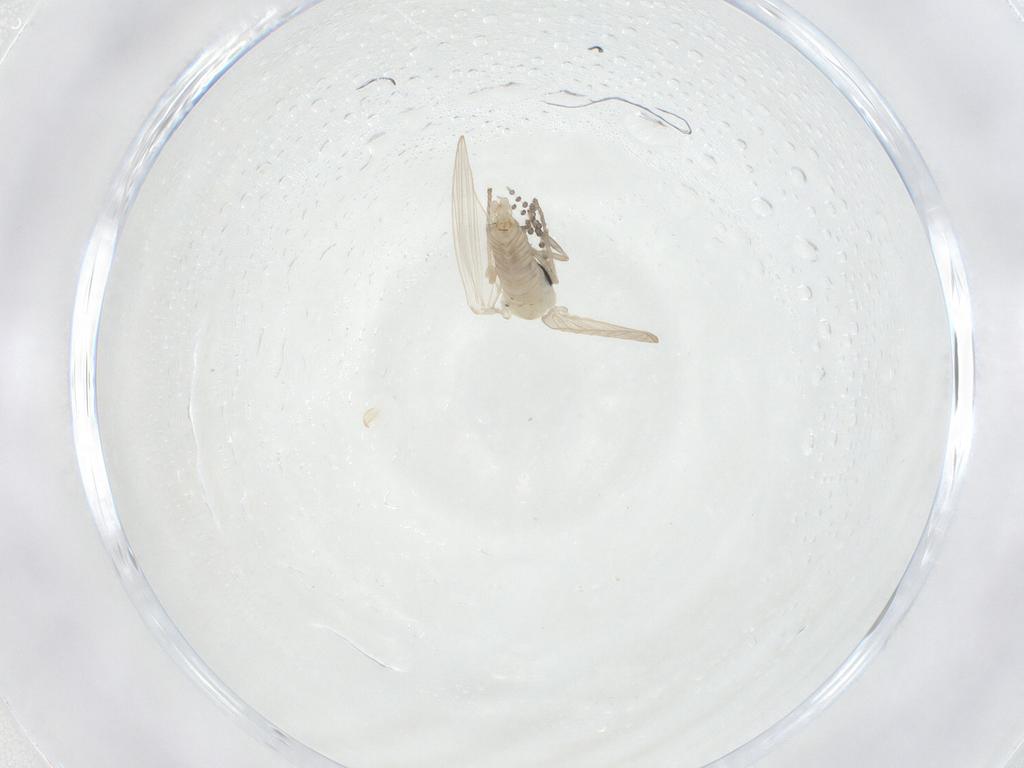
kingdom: Animalia
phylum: Arthropoda
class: Insecta
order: Diptera
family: Psychodidae
